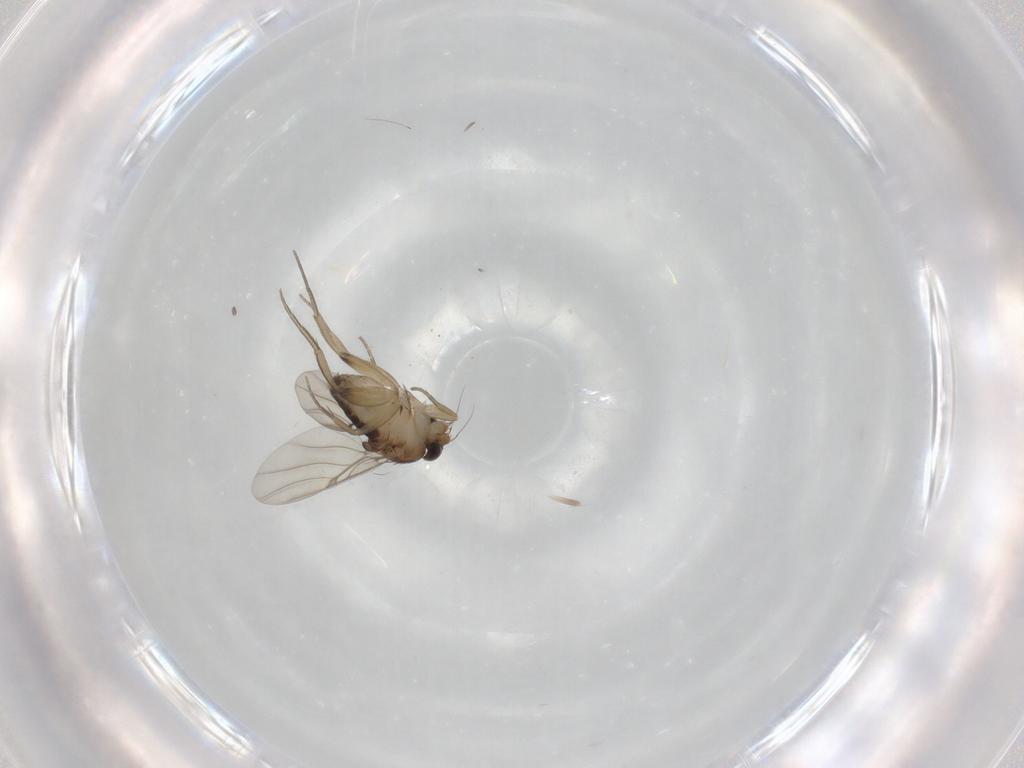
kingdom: Animalia
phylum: Arthropoda
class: Insecta
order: Diptera
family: Phoridae
